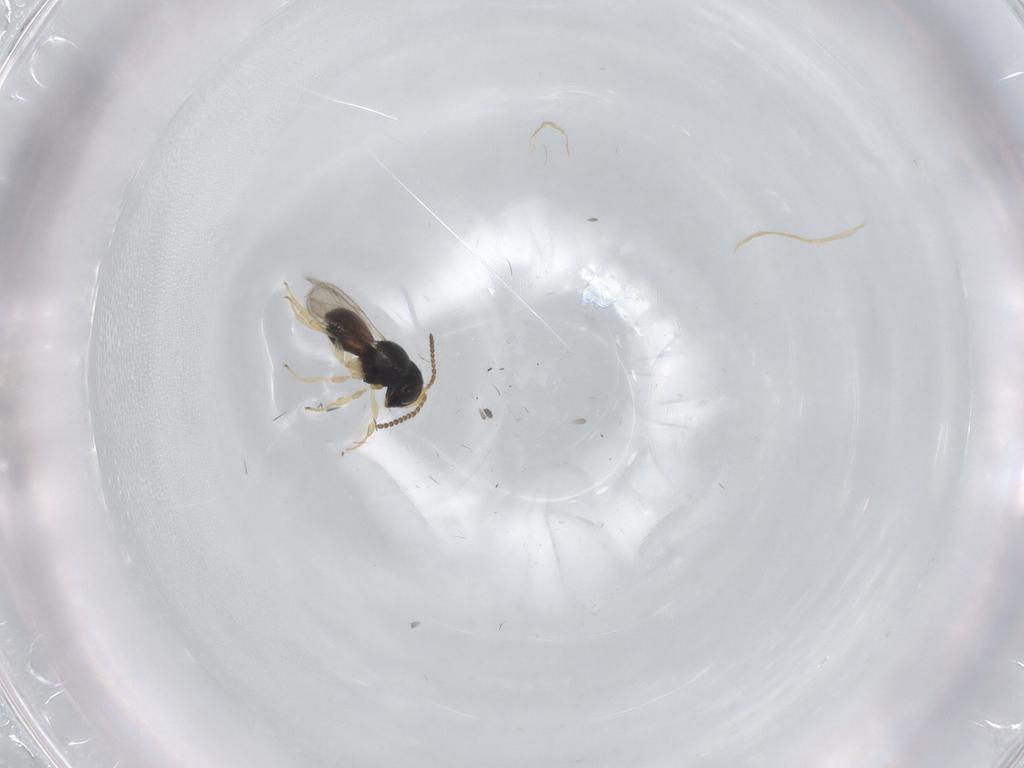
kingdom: Animalia
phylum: Arthropoda
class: Insecta
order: Hymenoptera
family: Scelionidae
